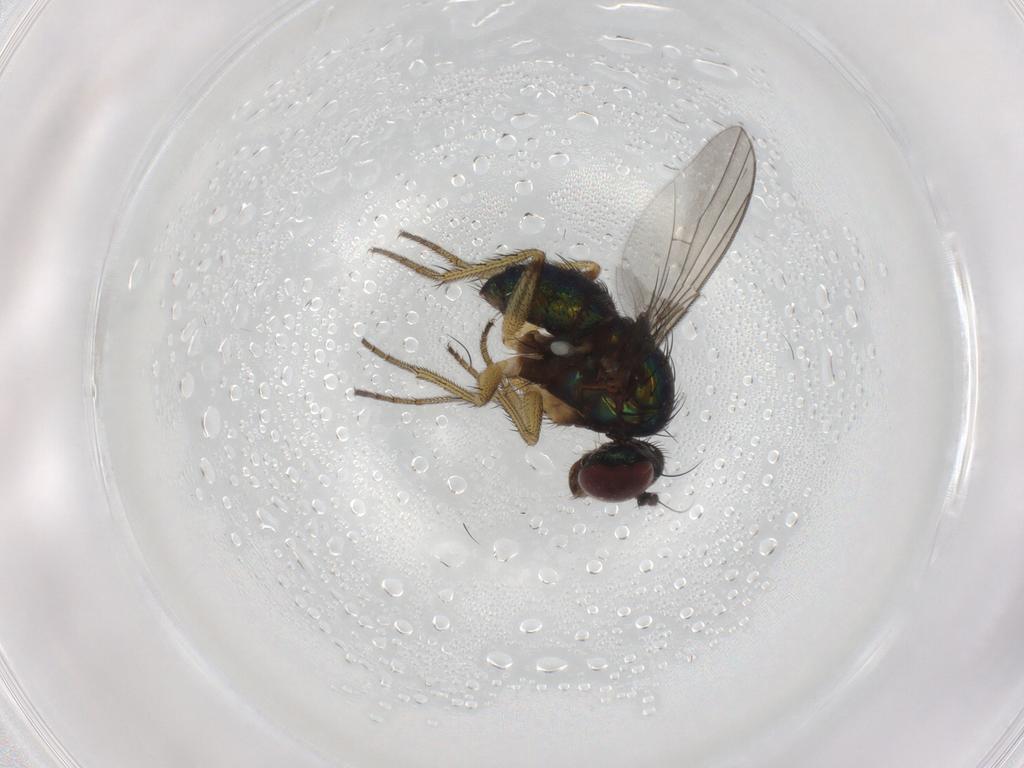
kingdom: Animalia
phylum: Arthropoda
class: Insecta
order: Diptera
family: Dolichopodidae
